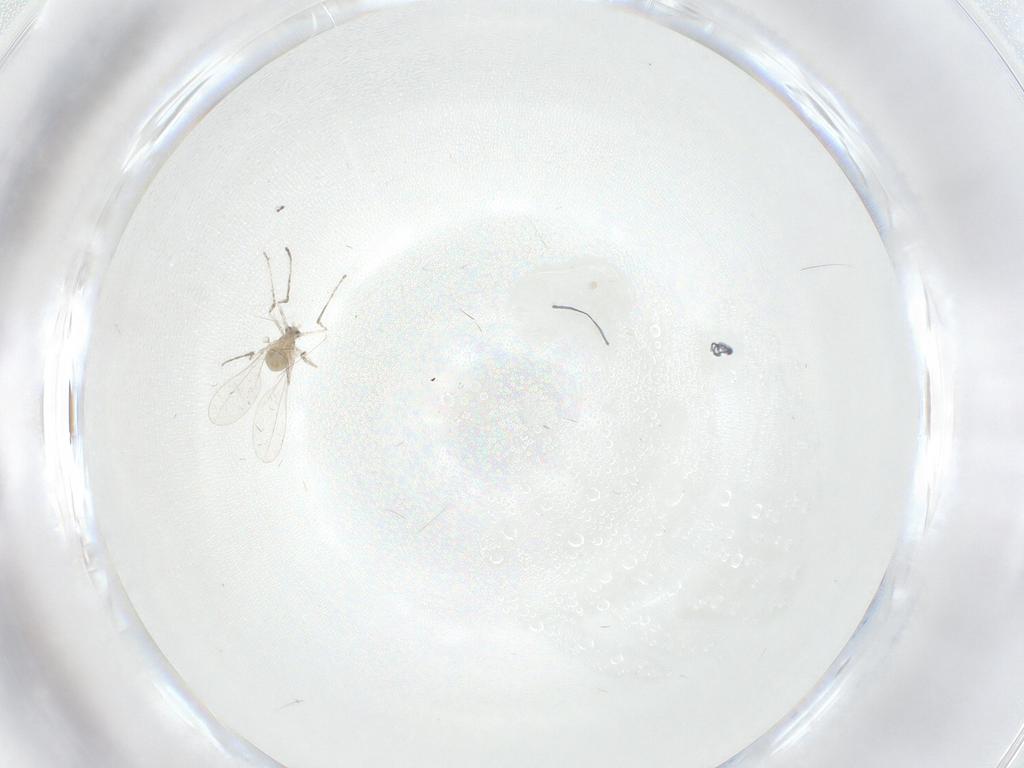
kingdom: Animalia
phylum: Arthropoda
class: Insecta
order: Diptera
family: Cecidomyiidae
